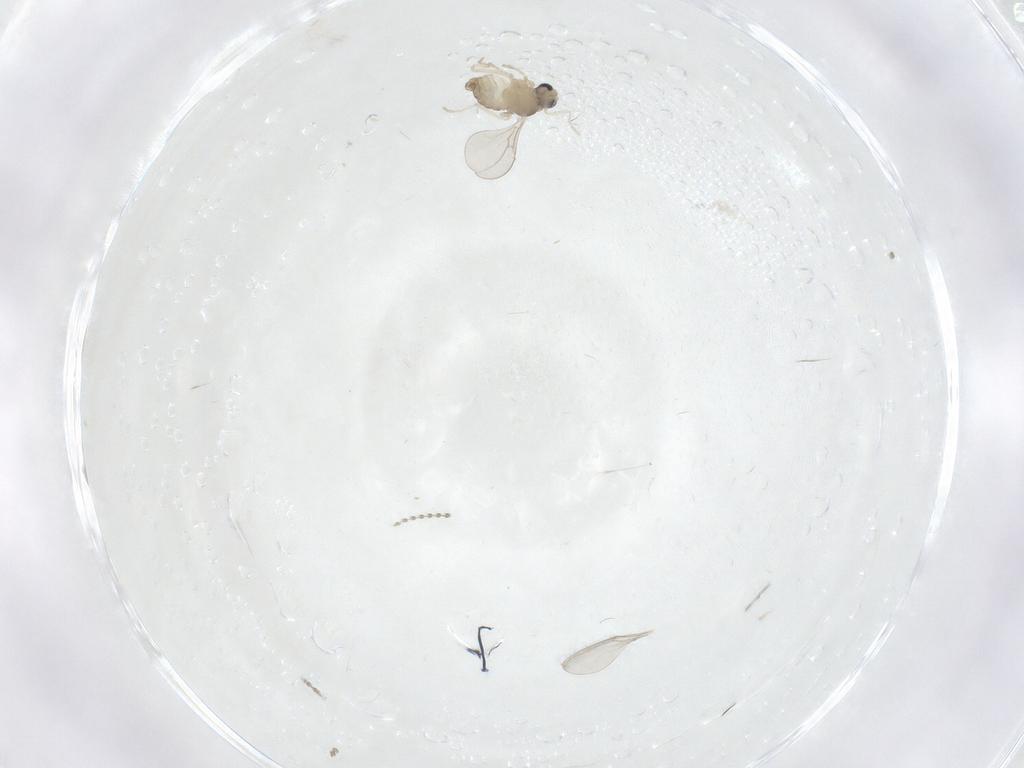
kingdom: Animalia
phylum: Arthropoda
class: Insecta
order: Diptera
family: Cecidomyiidae
